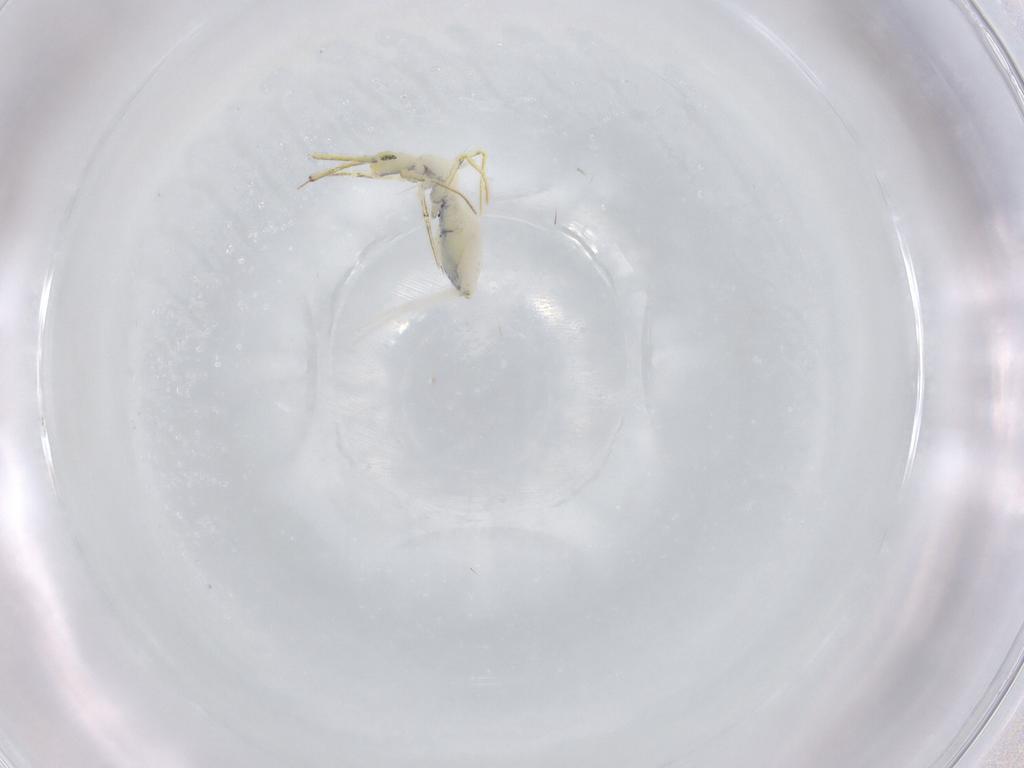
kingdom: Animalia
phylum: Arthropoda
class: Collembola
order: Entomobryomorpha
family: Entomobryidae
